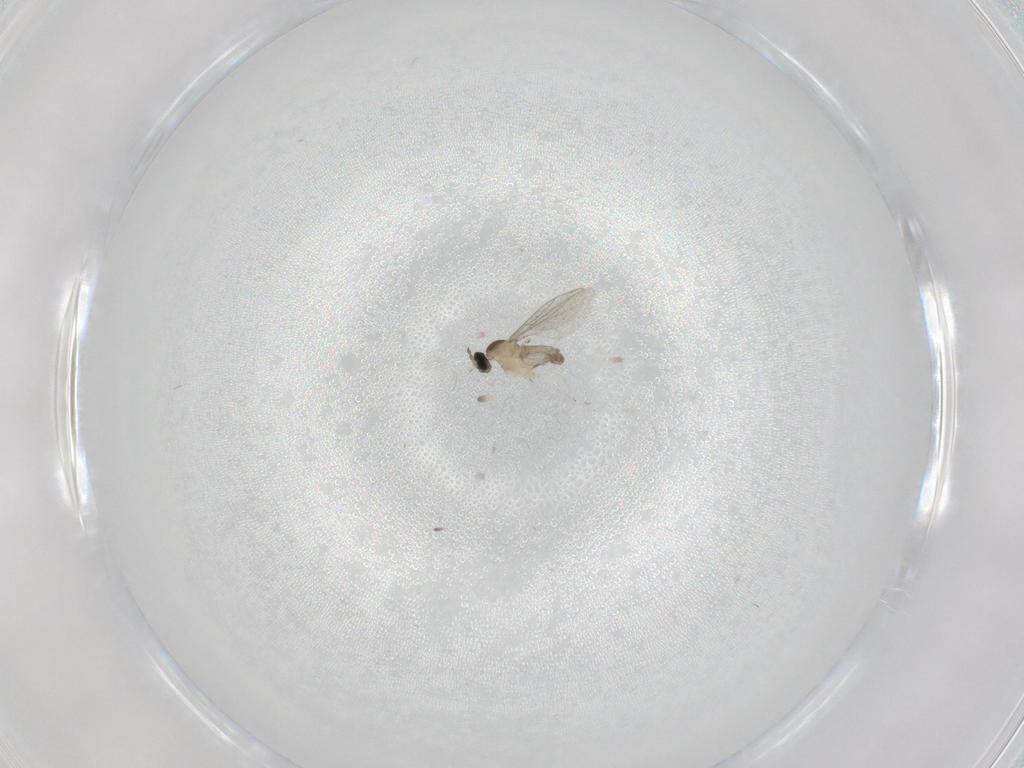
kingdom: Animalia
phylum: Arthropoda
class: Insecta
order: Diptera
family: Cecidomyiidae
